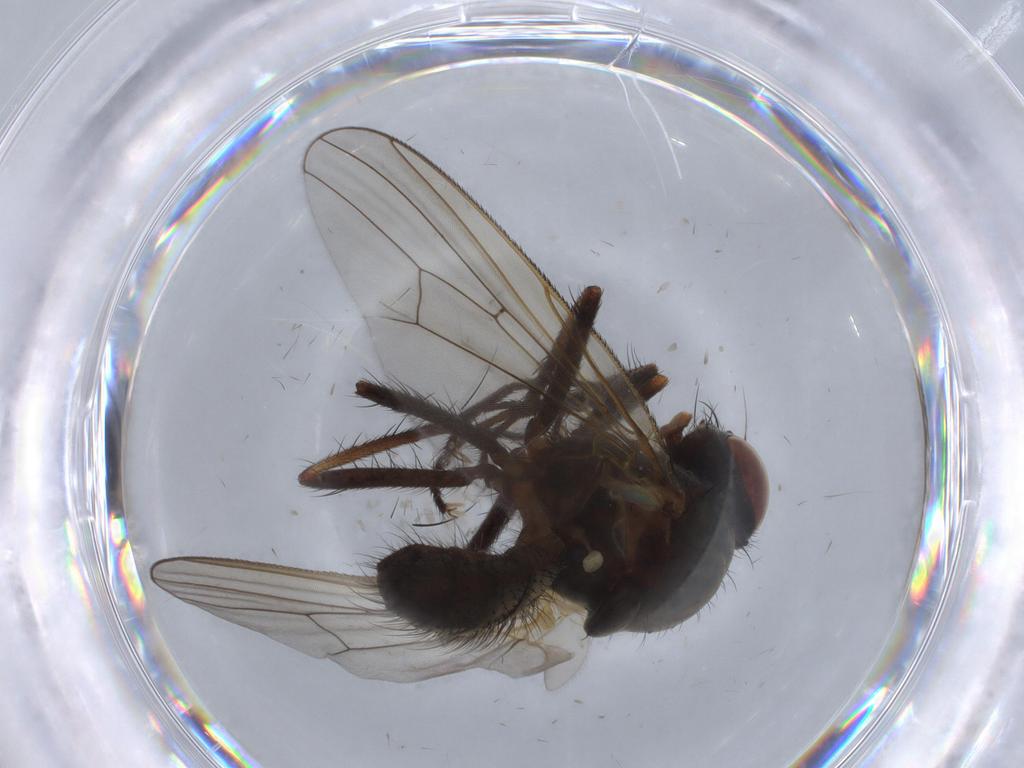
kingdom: Animalia
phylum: Arthropoda
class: Insecta
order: Diptera
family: Anthomyiidae
